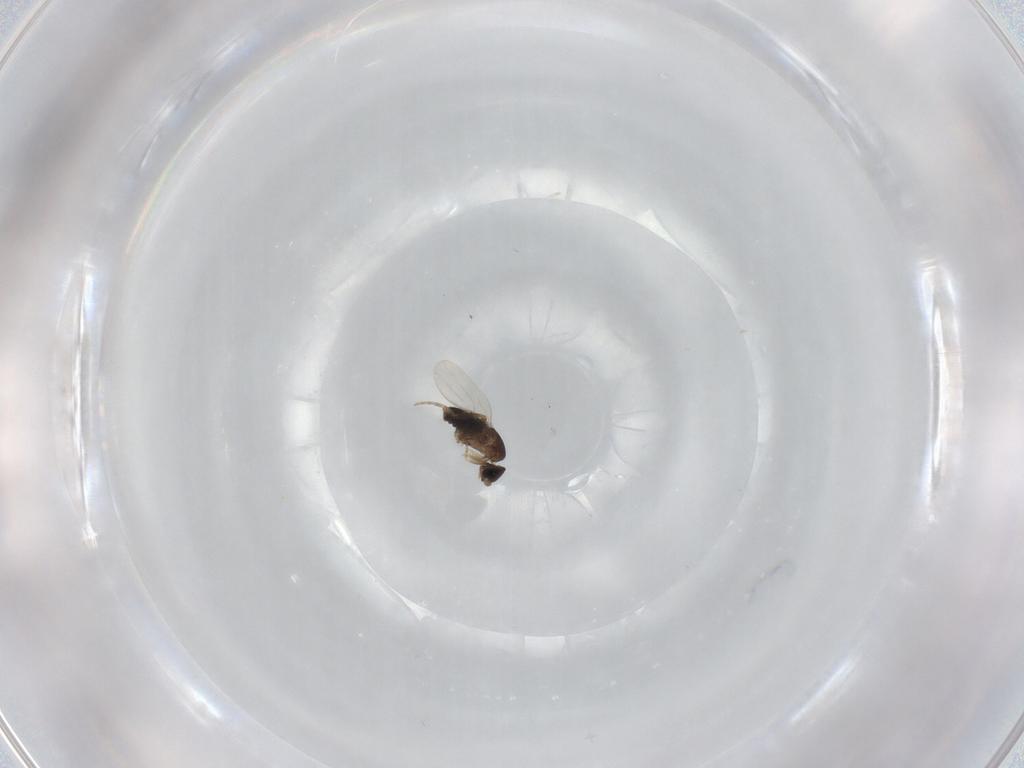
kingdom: Animalia
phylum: Arthropoda
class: Insecta
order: Diptera
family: Phoridae
